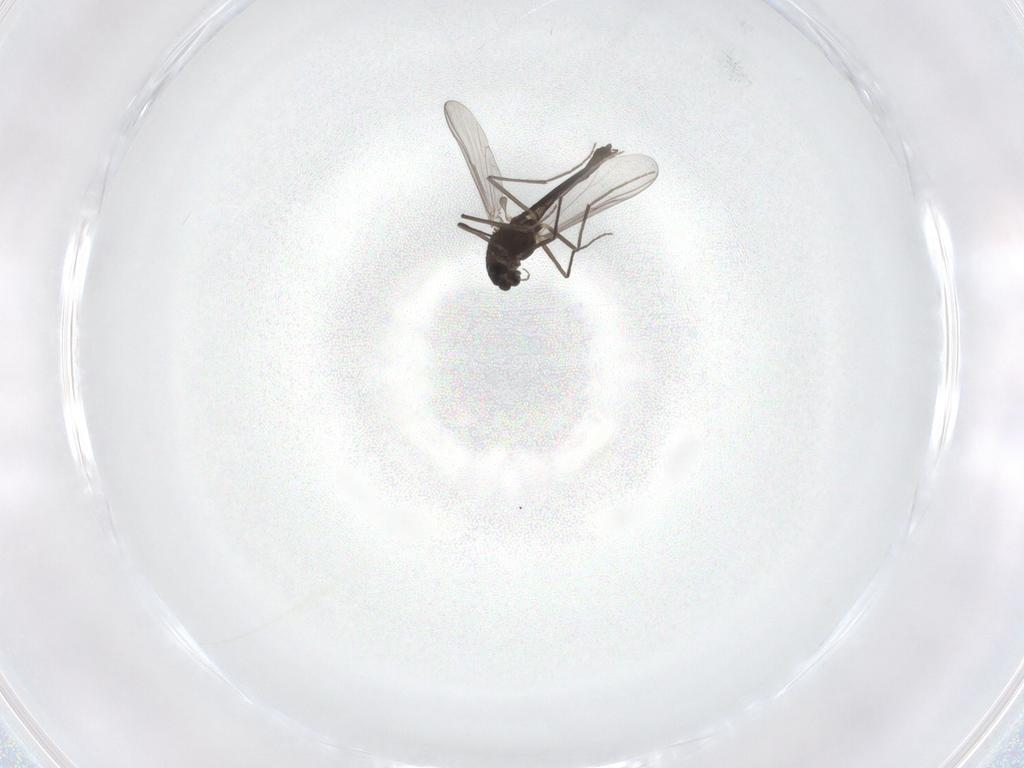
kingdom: Animalia
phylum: Arthropoda
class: Insecta
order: Diptera
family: Chironomidae
